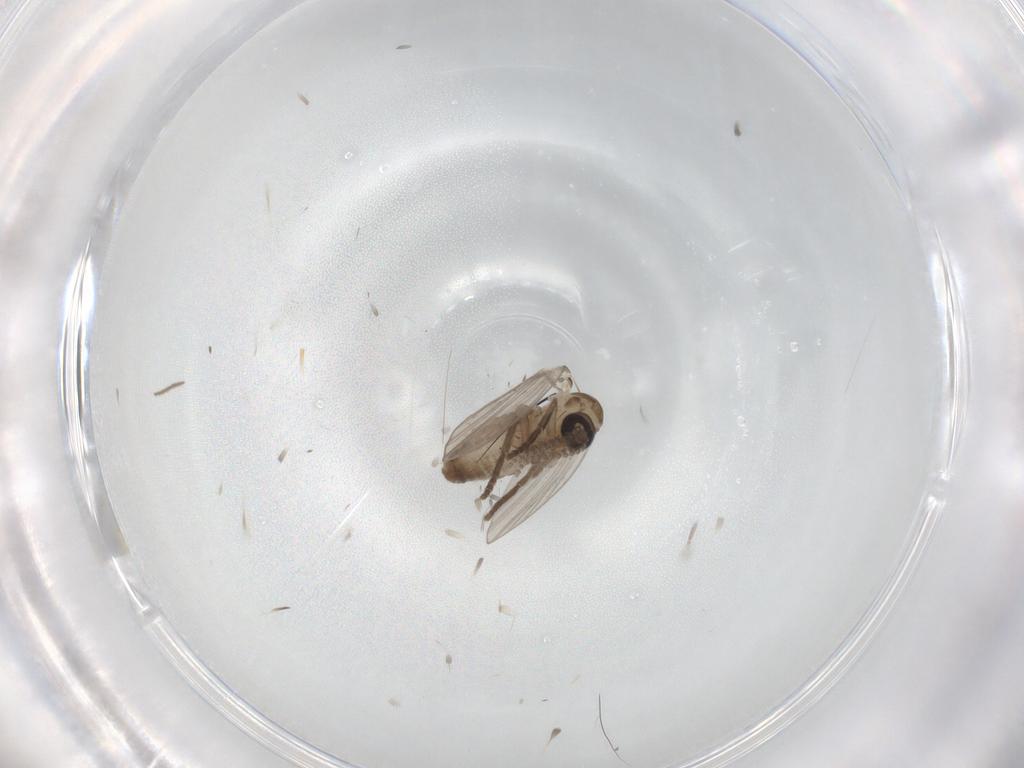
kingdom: Animalia
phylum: Arthropoda
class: Insecta
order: Diptera
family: Psychodidae
